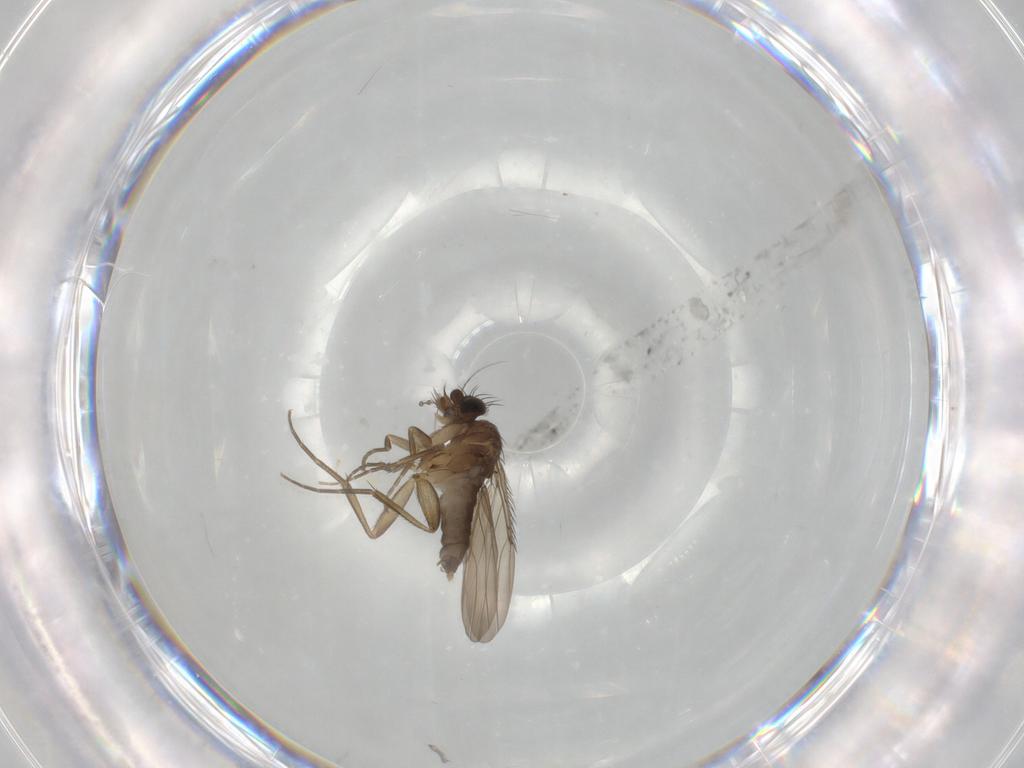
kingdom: Animalia
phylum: Arthropoda
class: Insecta
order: Diptera
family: Phoridae
